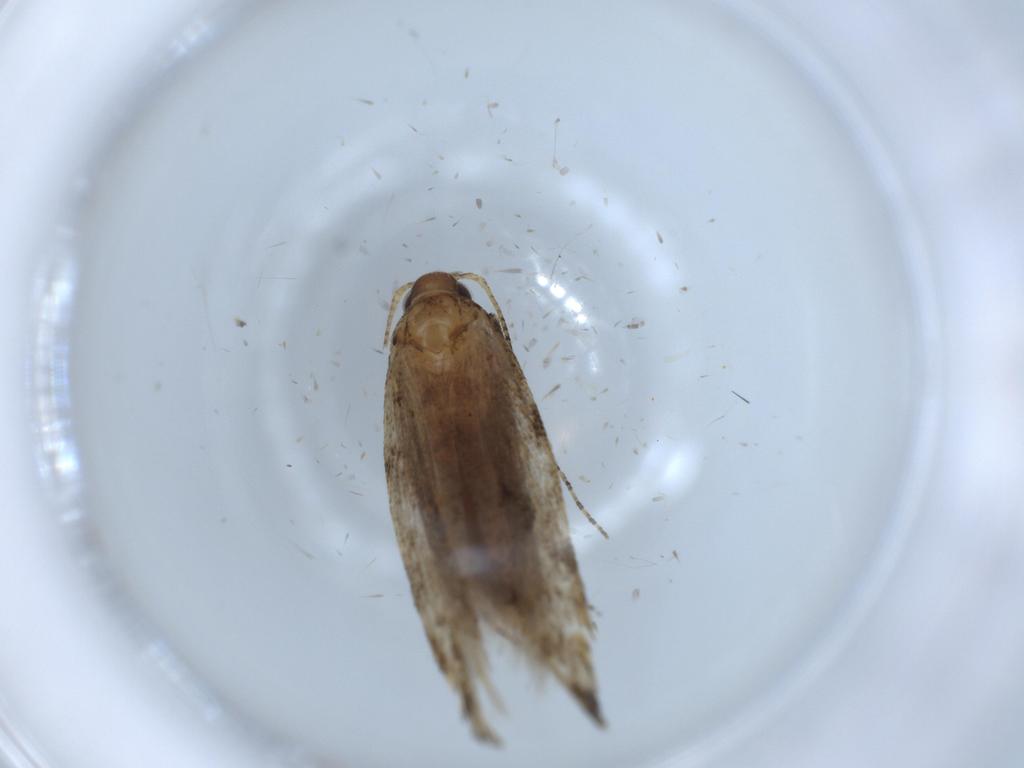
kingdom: Animalia
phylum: Arthropoda
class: Insecta
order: Lepidoptera
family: Gelechiidae
